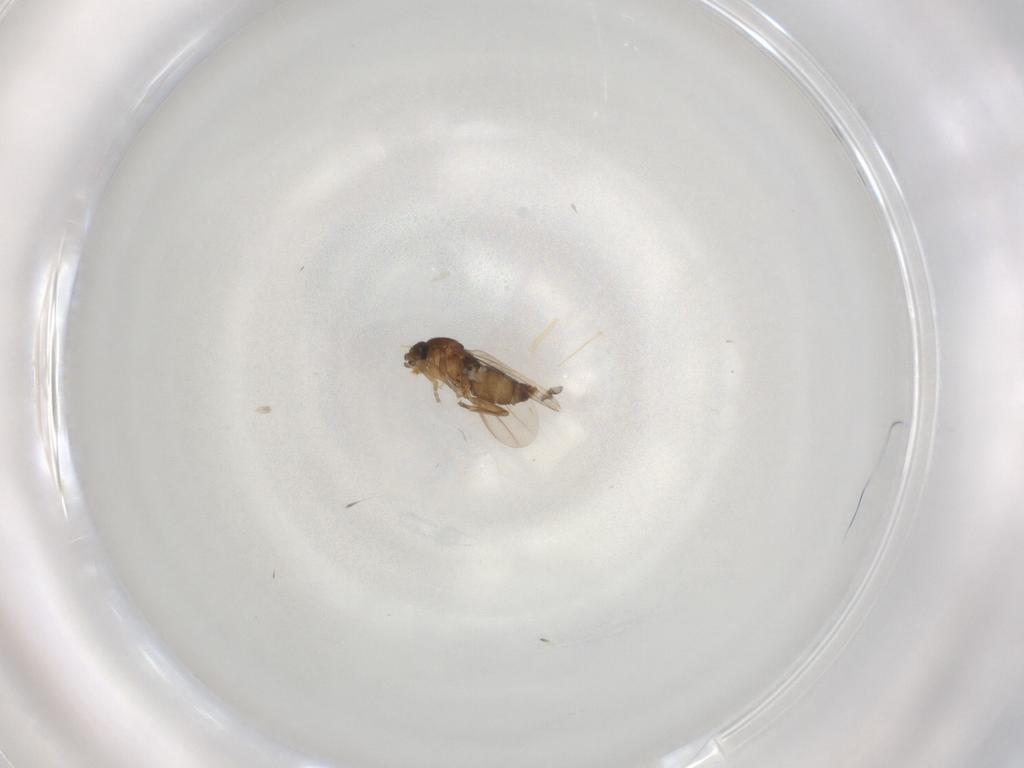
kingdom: Animalia
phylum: Arthropoda
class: Insecta
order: Diptera
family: Phoridae
